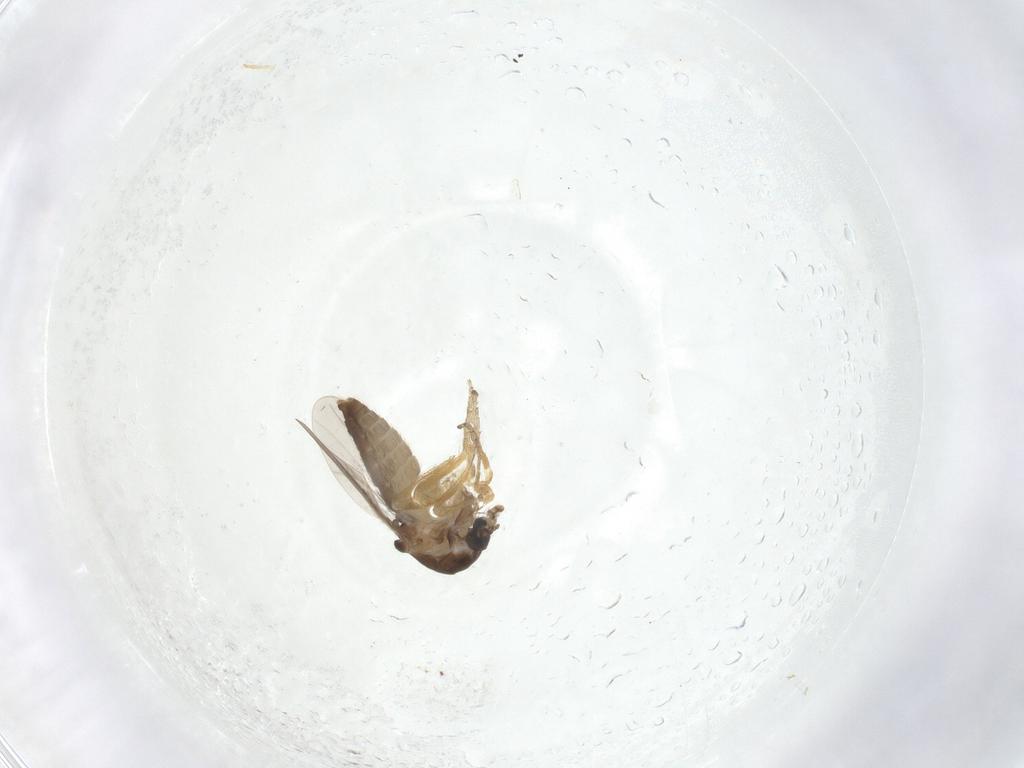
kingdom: Animalia
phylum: Arthropoda
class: Insecta
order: Diptera
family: Ceratopogonidae
